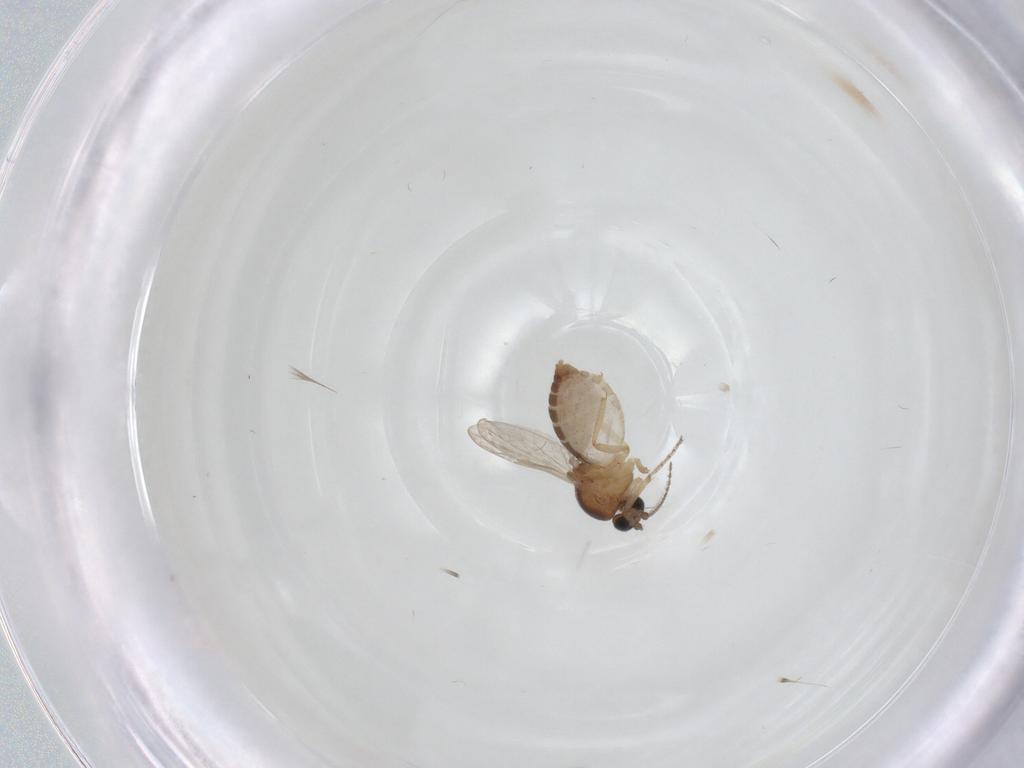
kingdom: Animalia
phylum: Arthropoda
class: Insecta
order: Diptera
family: Ceratopogonidae
